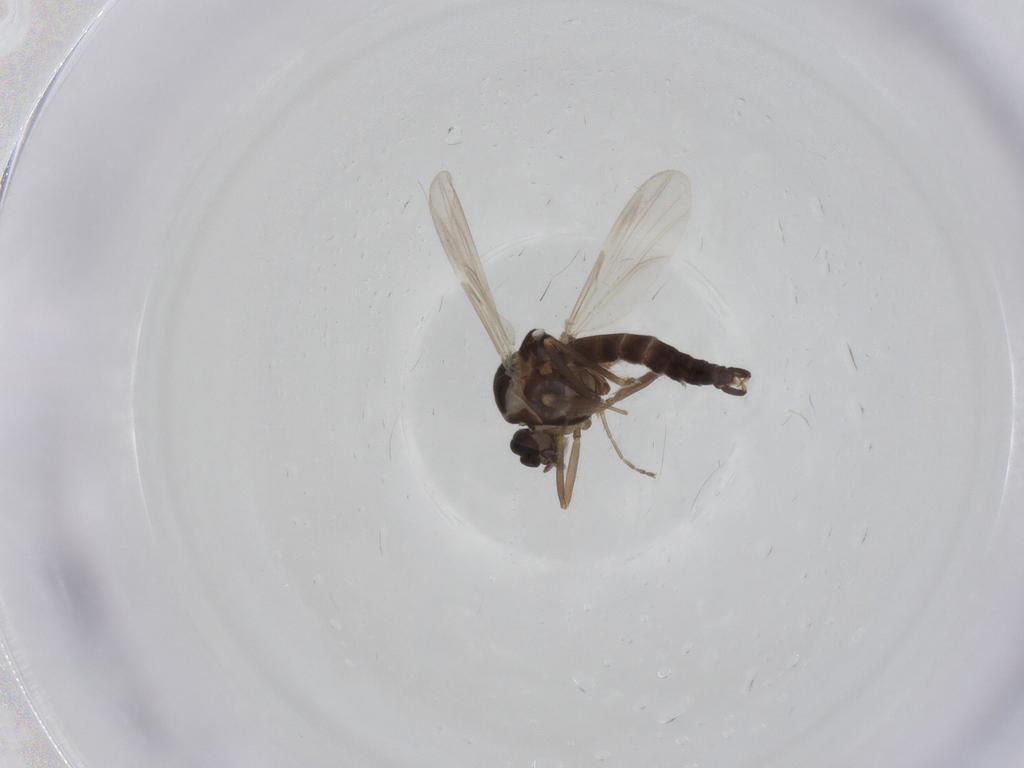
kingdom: Animalia
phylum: Arthropoda
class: Insecta
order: Diptera
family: Ceratopogonidae
